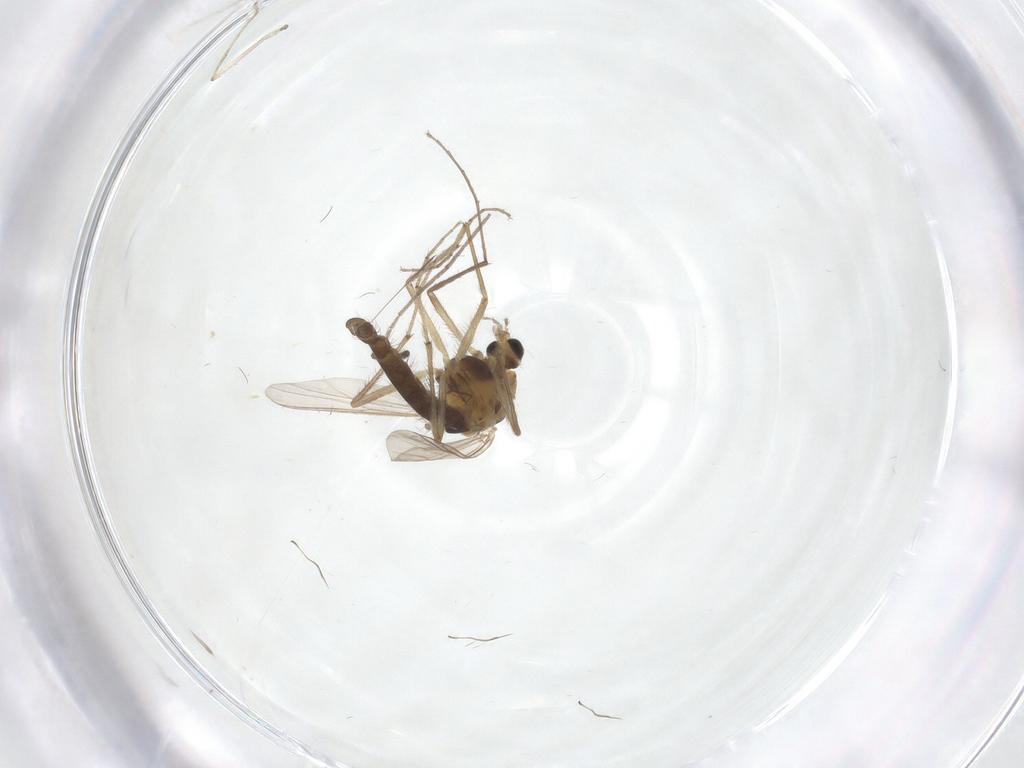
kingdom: Animalia
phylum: Arthropoda
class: Insecta
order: Diptera
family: Chironomidae
